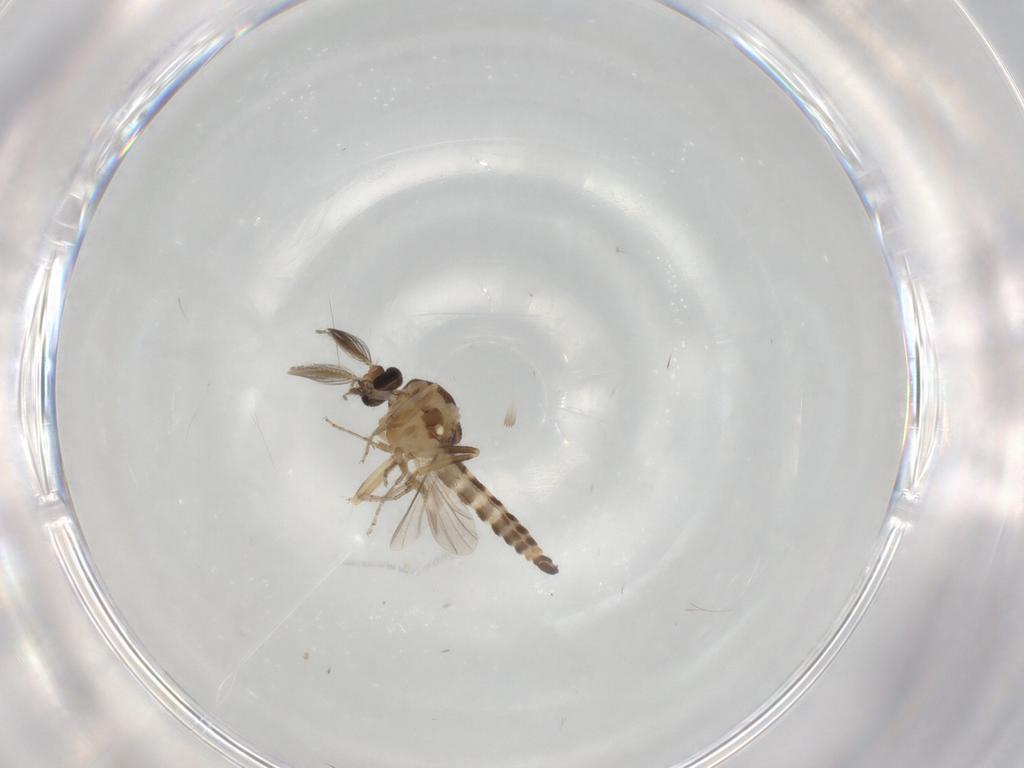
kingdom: Animalia
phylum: Arthropoda
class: Insecta
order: Diptera
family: Ceratopogonidae
